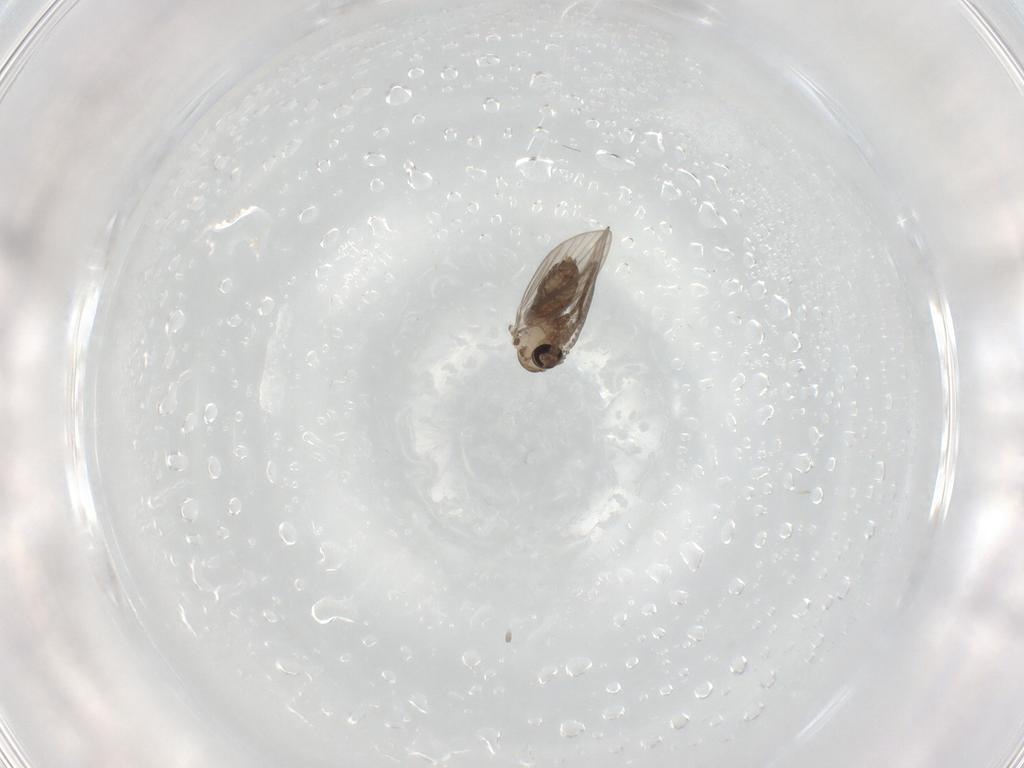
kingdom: Animalia
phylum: Arthropoda
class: Insecta
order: Diptera
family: Psychodidae
